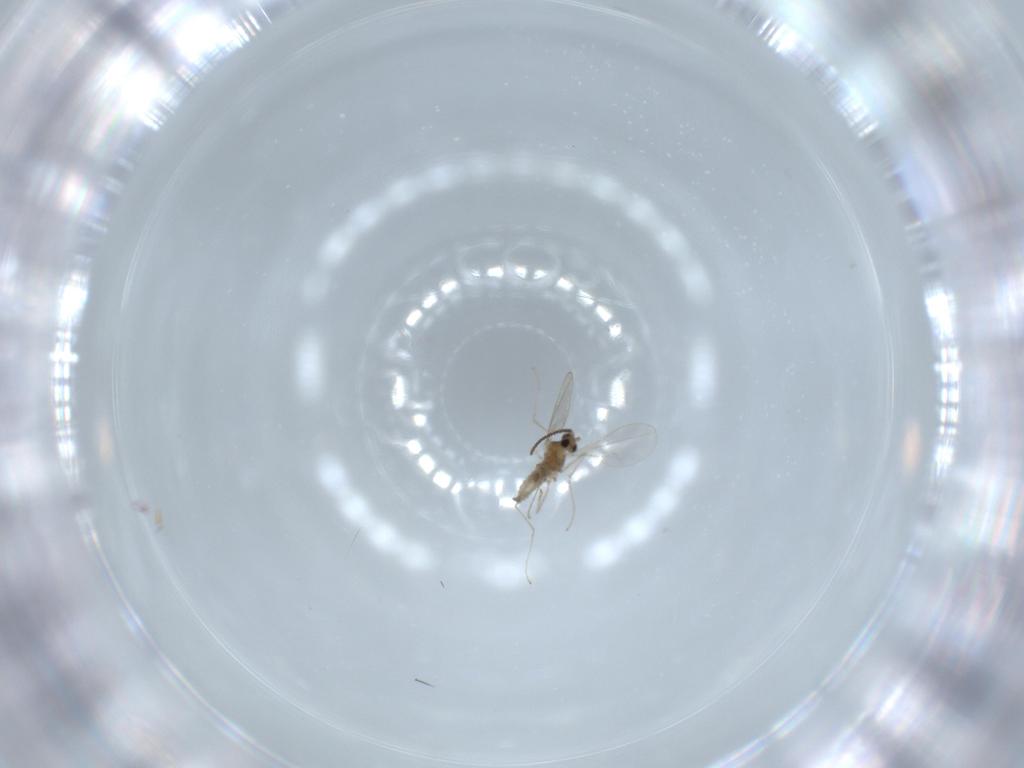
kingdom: Animalia
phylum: Arthropoda
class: Insecta
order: Diptera
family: Cecidomyiidae
